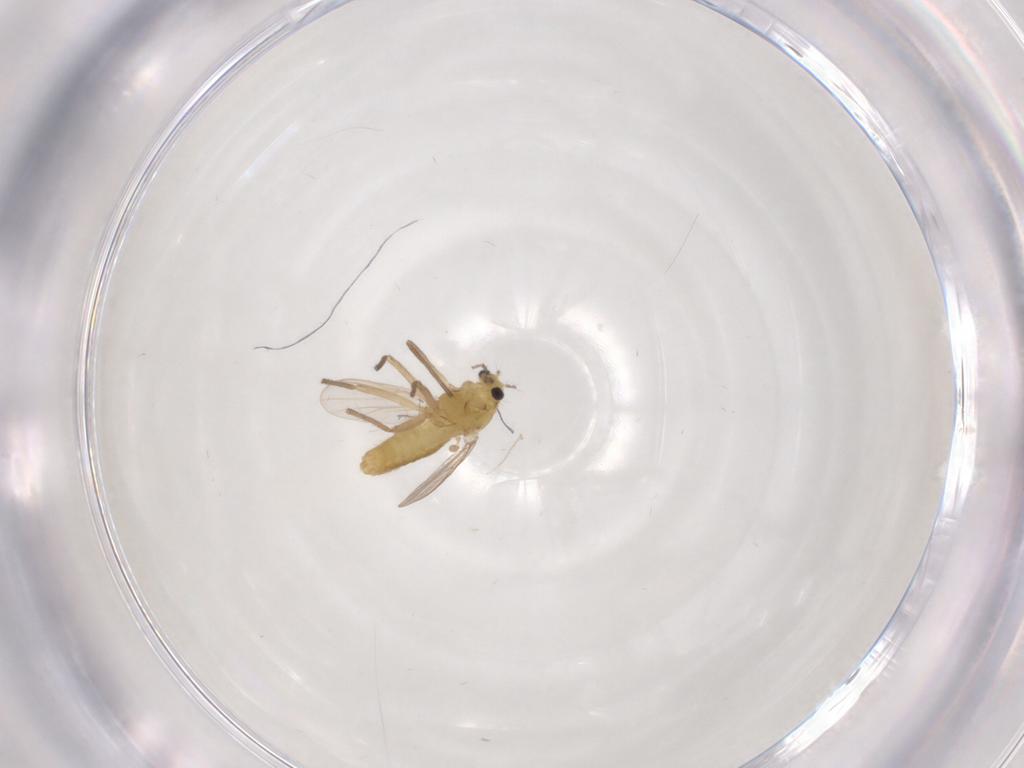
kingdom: Animalia
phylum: Arthropoda
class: Insecta
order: Diptera
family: Chironomidae
